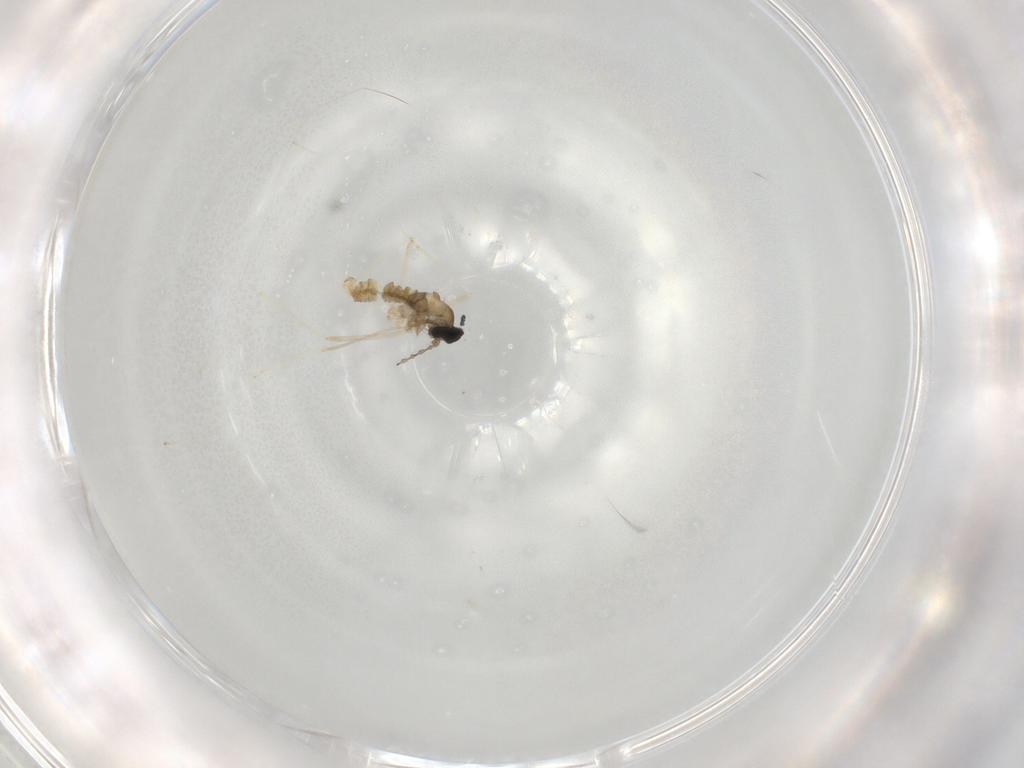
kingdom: Animalia
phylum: Arthropoda
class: Insecta
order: Diptera
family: Cecidomyiidae
